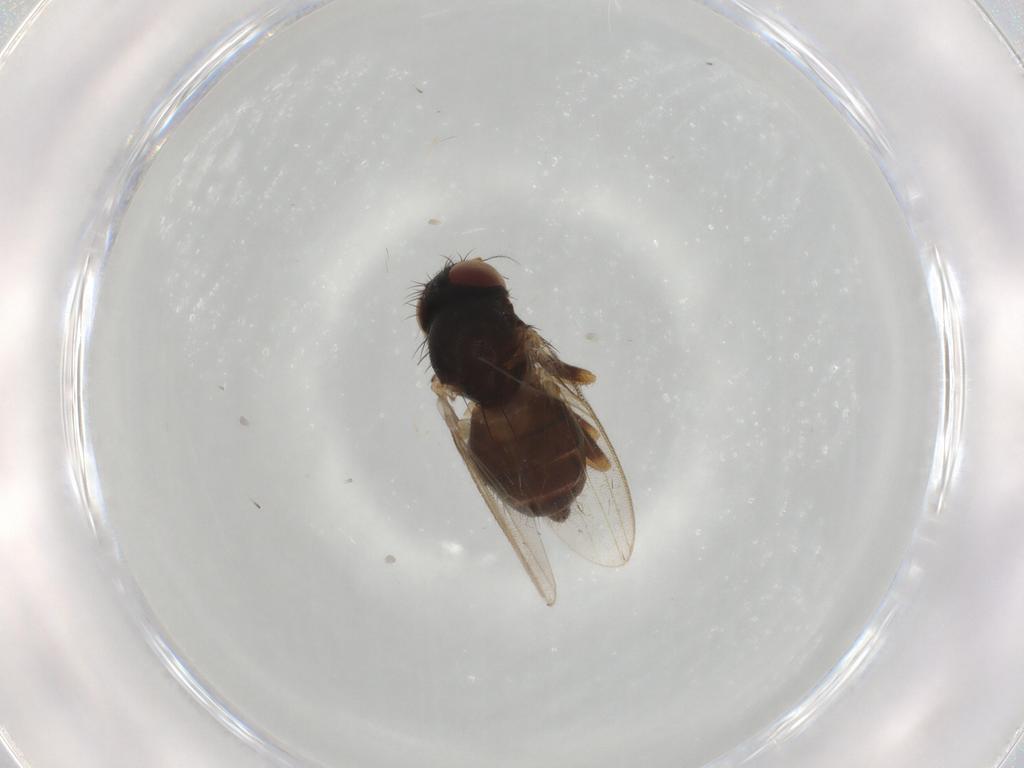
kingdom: Animalia
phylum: Arthropoda
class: Insecta
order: Diptera
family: Milichiidae
